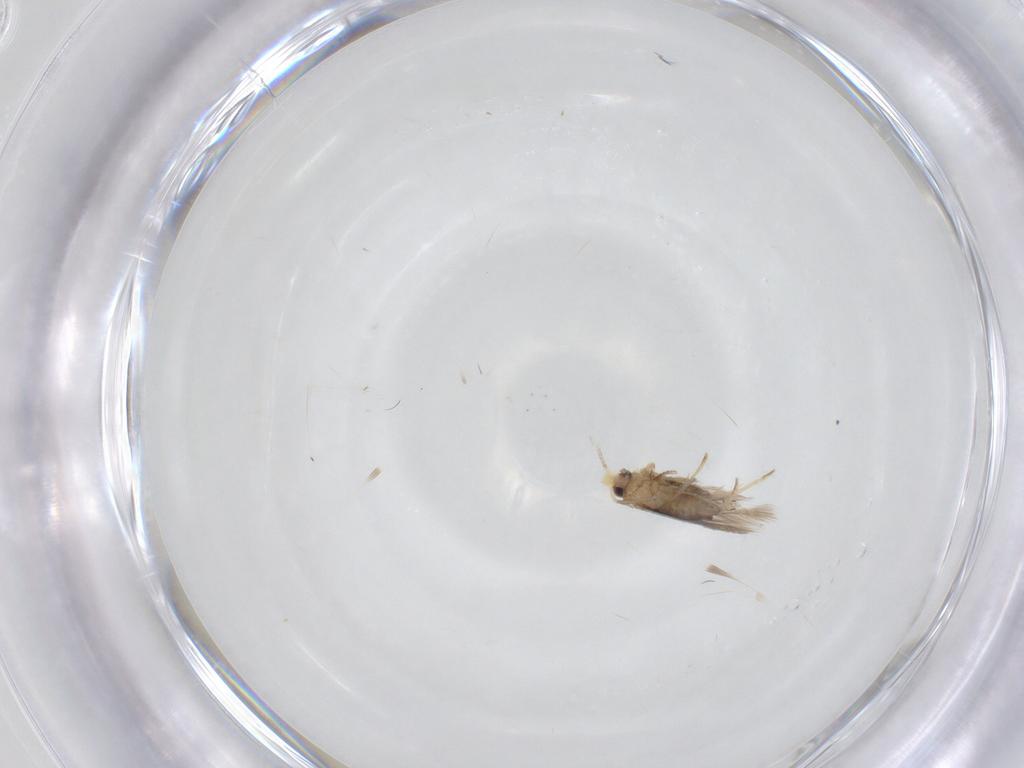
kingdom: Animalia
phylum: Arthropoda
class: Insecta
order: Lepidoptera
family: Nepticulidae
